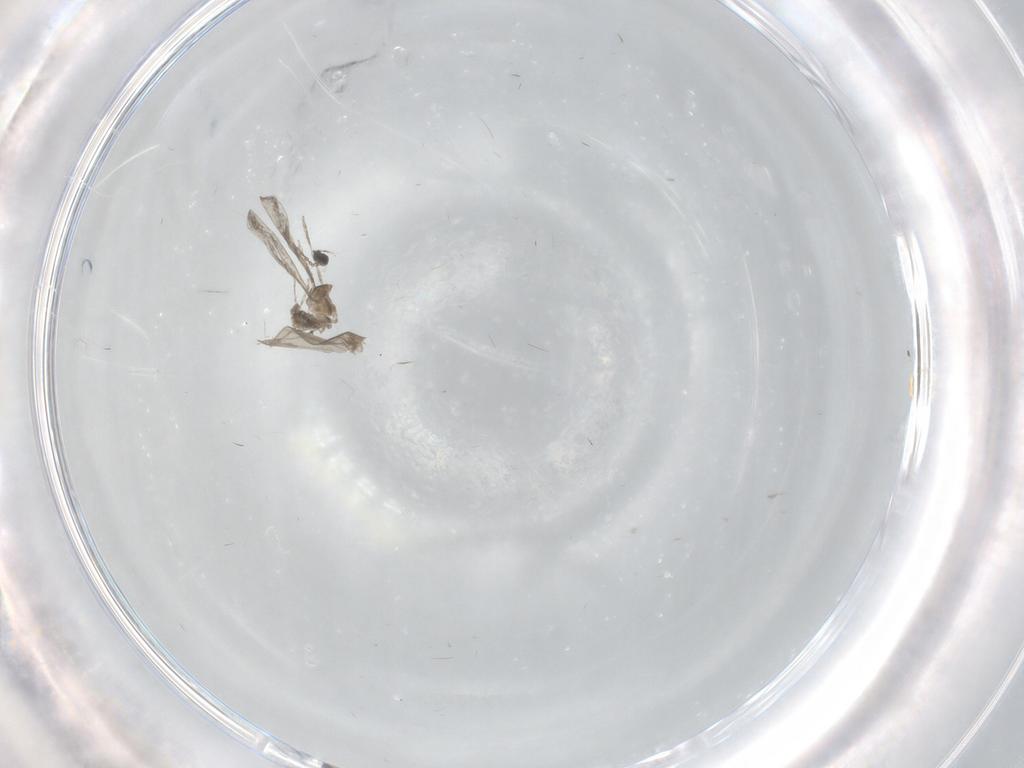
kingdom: Animalia
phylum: Arthropoda
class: Insecta
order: Diptera
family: Cecidomyiidae
